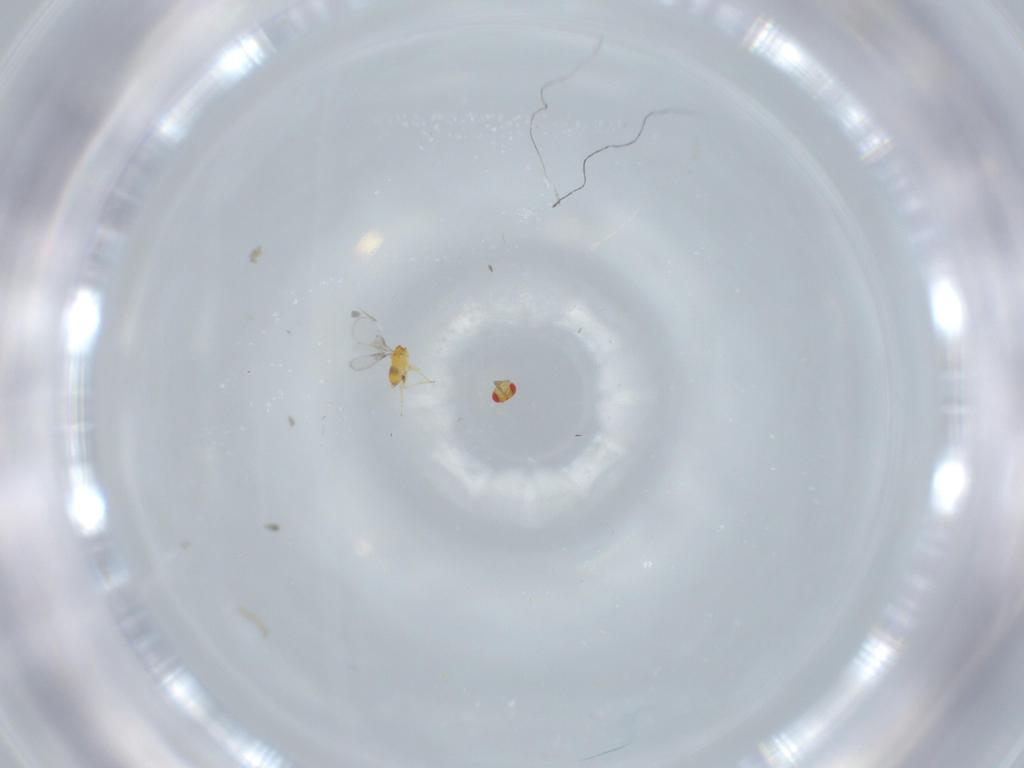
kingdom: Animalia
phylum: Arthropoda
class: Insecta
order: Hymenoptera
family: Trichogrammatidae
